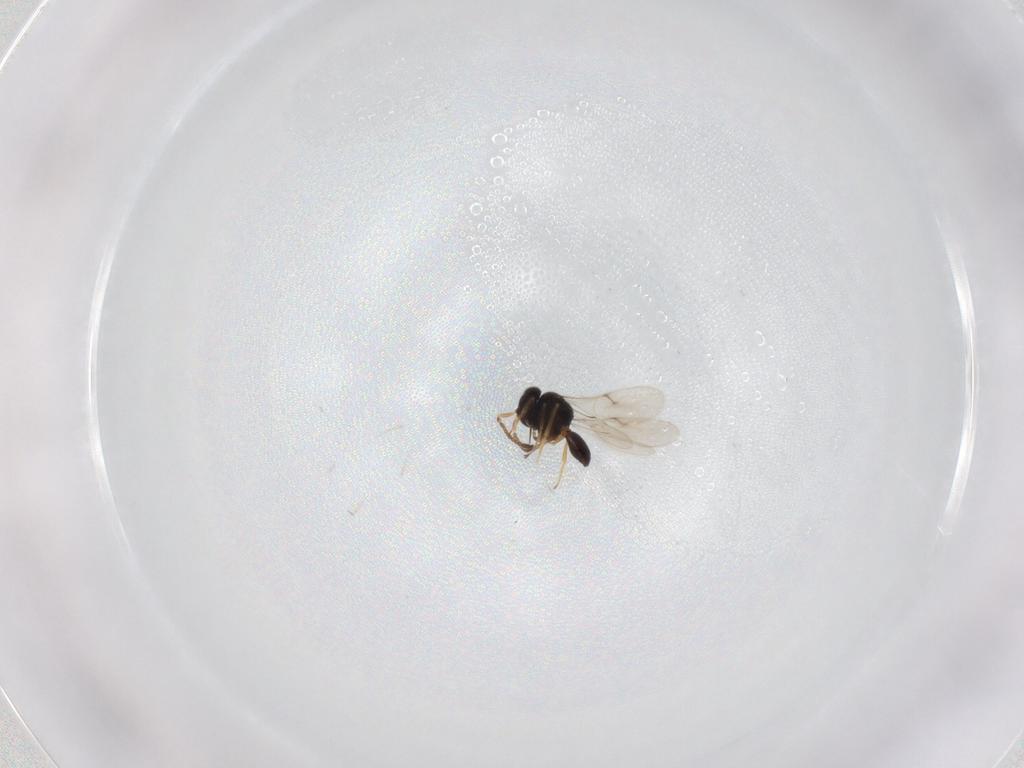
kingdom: Animalia
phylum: Arthropoda
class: Insecta
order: Hymenoptera
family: Scelionidae
